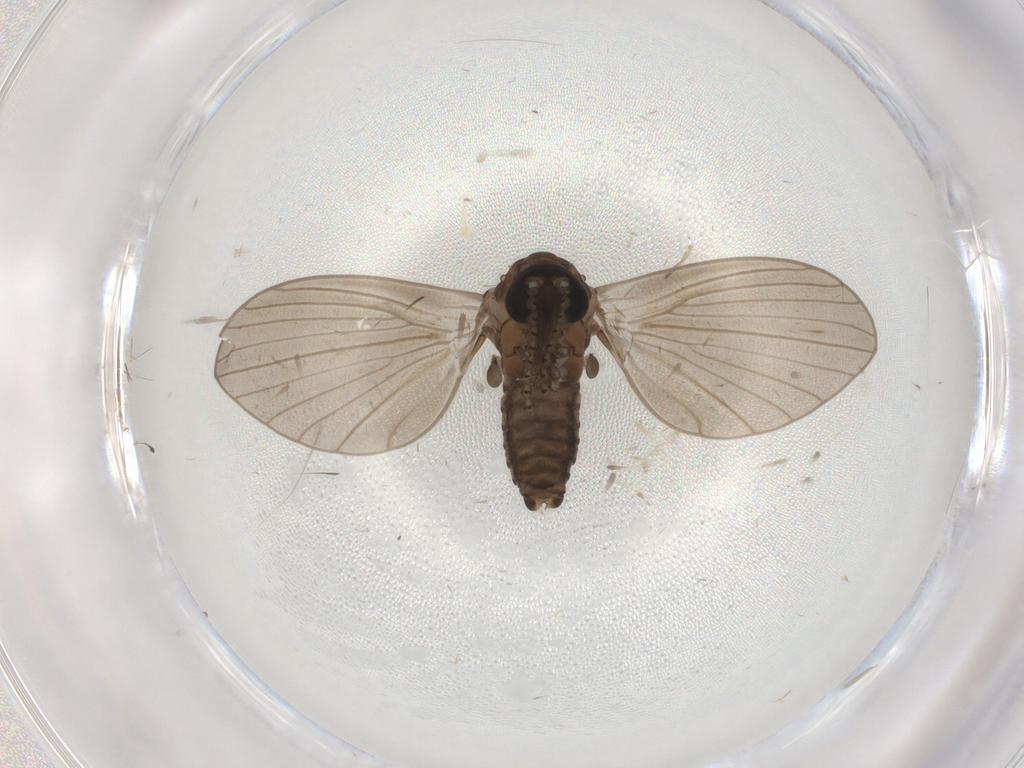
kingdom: Animalia
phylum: Arthropoda
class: Insecta
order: Diptera
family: Psychodidae
